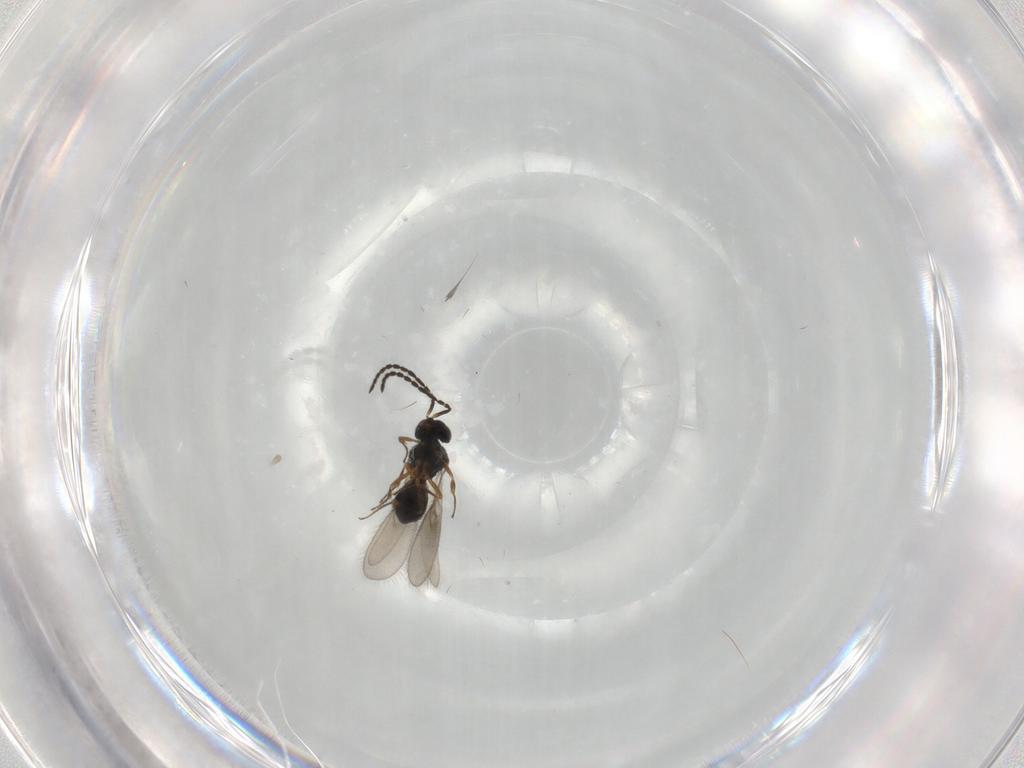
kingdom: Animalia
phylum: Arthropoda
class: Insecta
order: Hymenoptera
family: Scelionidae
